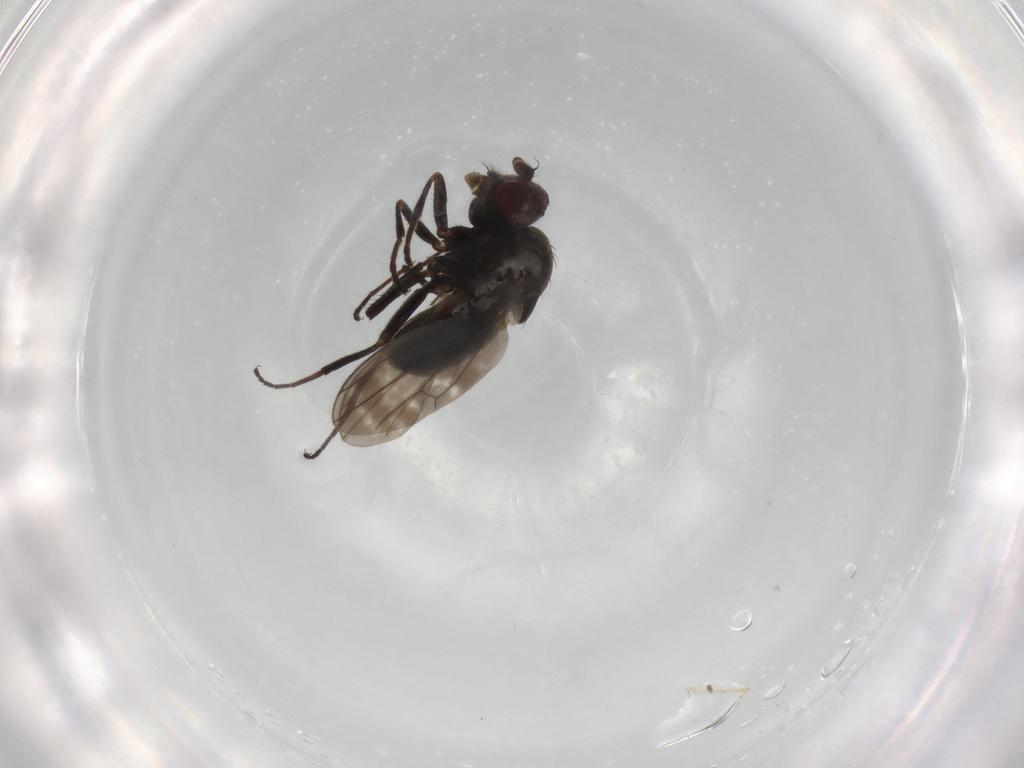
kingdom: Animalia
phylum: Arthropoda
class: Insecta
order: Diptera
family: Ephydridae
